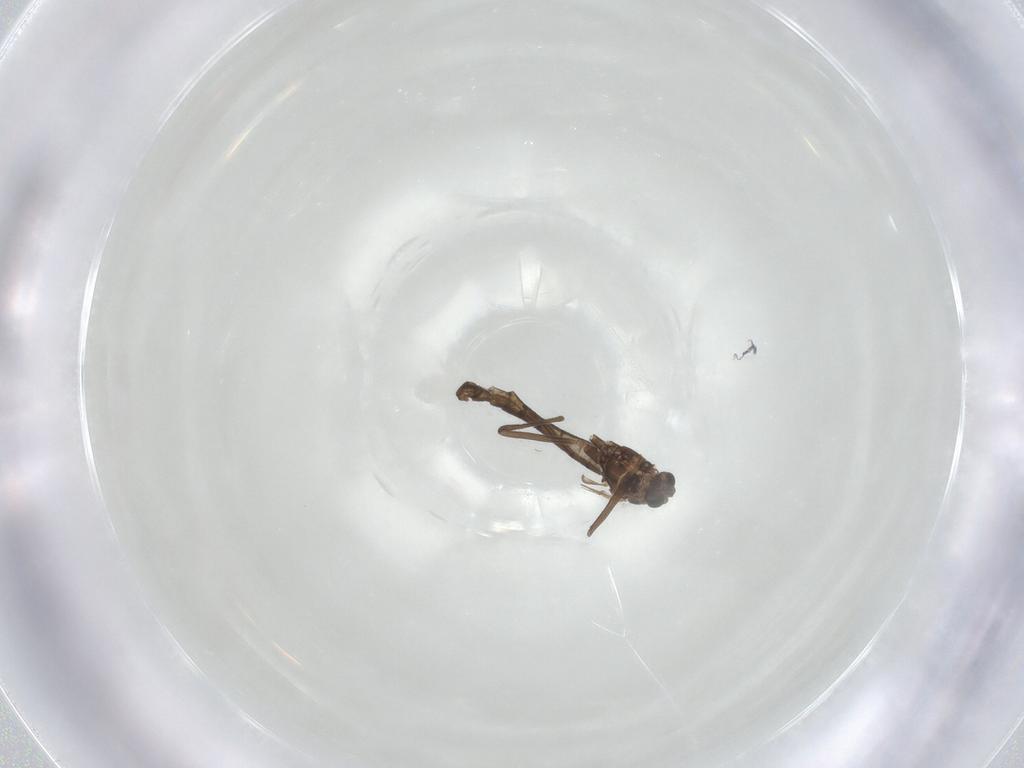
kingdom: Animalia
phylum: Arthropoda
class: Insecta
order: Diptera
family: Chironomidae
